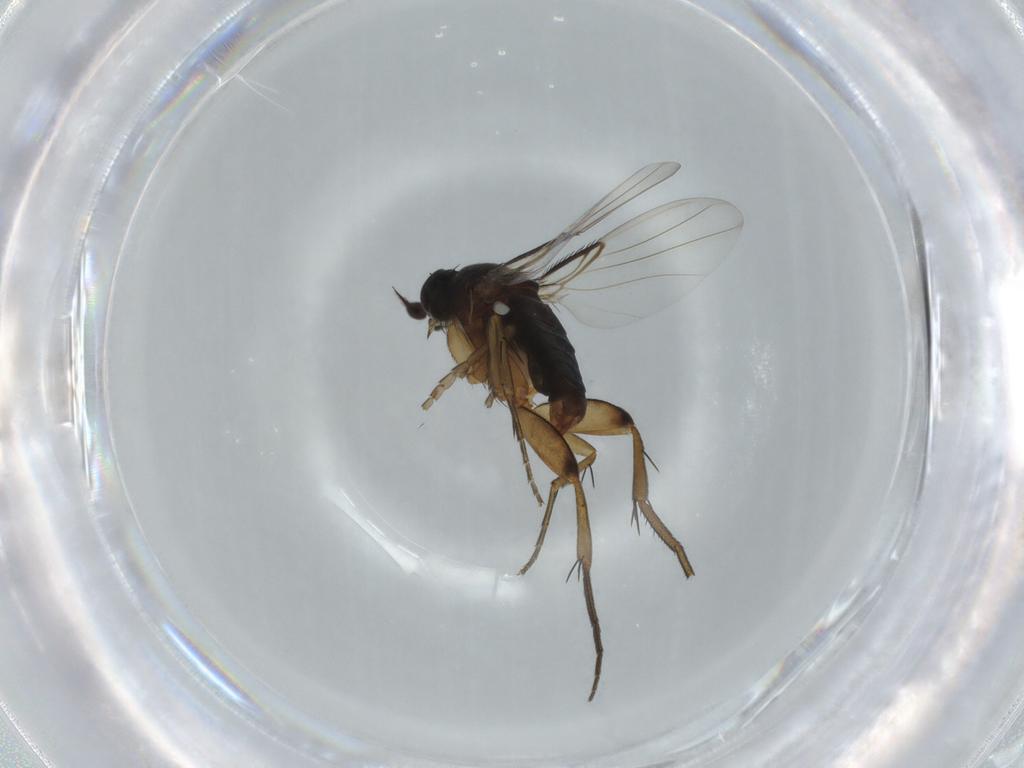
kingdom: Animalia
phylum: Arthropoda
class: Insecta
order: Diptera
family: Phoridae
